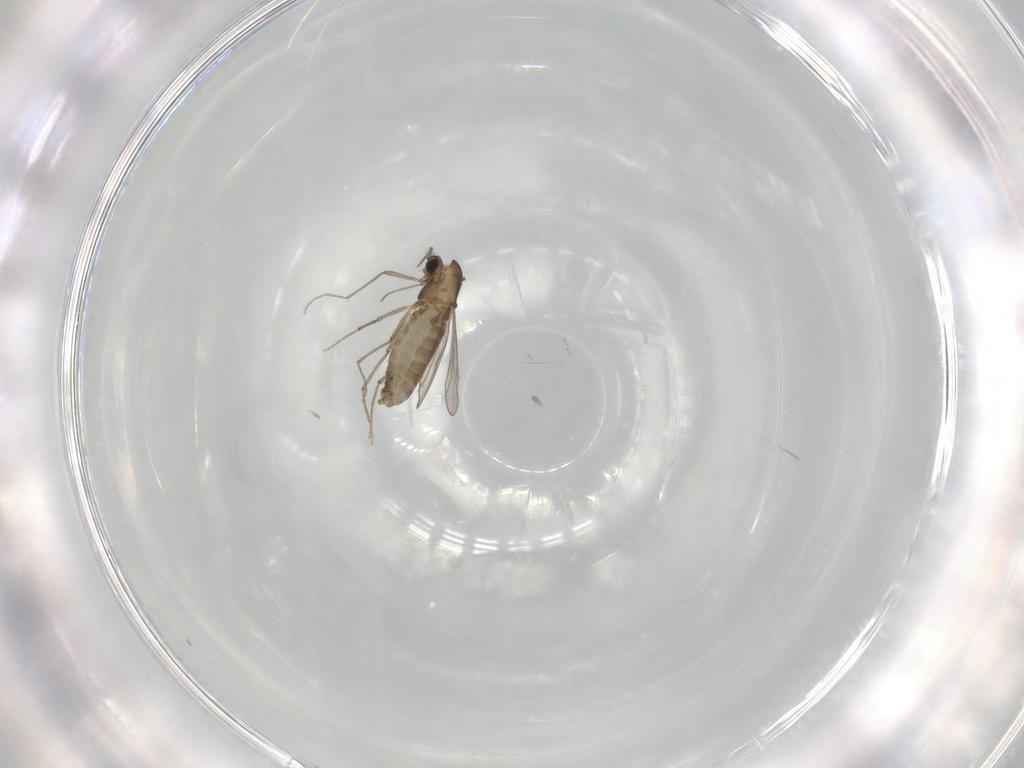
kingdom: Animalia
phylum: Arthropoda
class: Insecta
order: Diptera
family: Chironomidae
